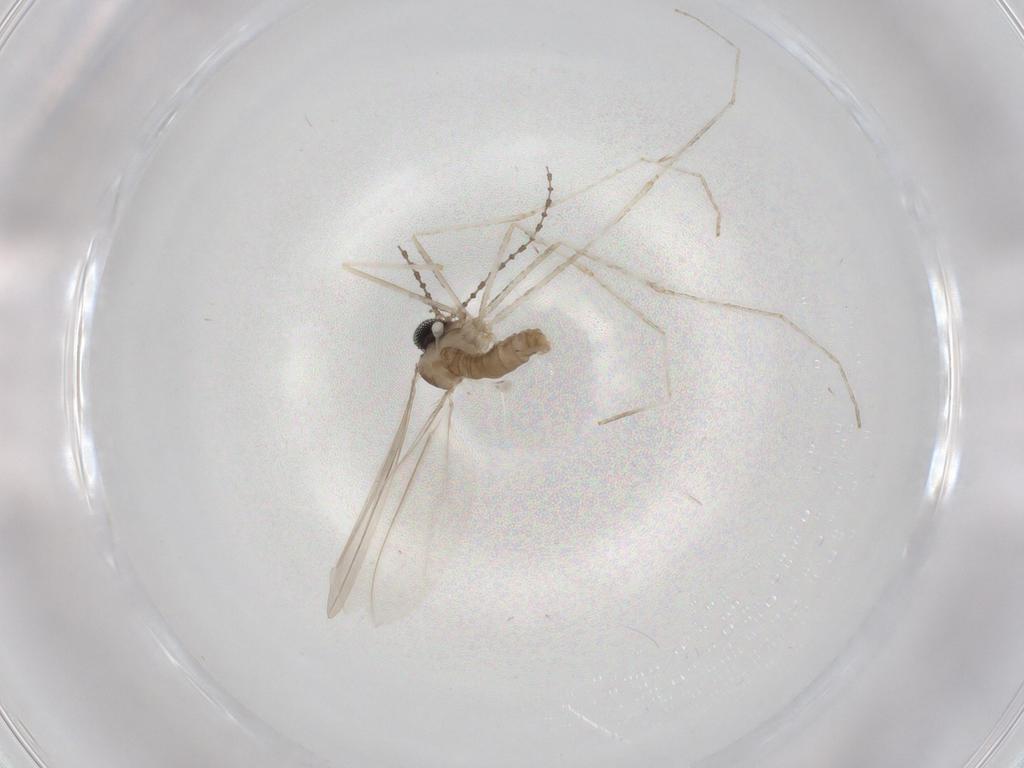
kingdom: Animalia
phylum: Arthropoda
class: Insecta
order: Diptera
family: Cecidomyiidae
